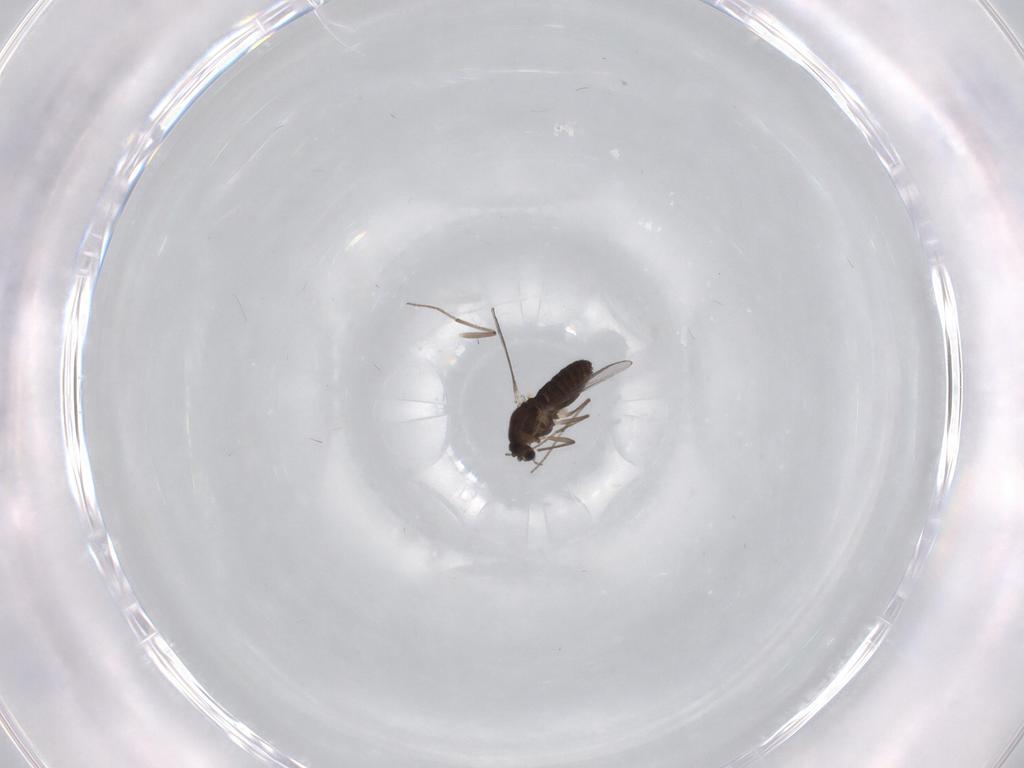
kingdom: Animalia
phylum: Arthropoda
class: Insecta
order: Diptera
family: Chironomidae
